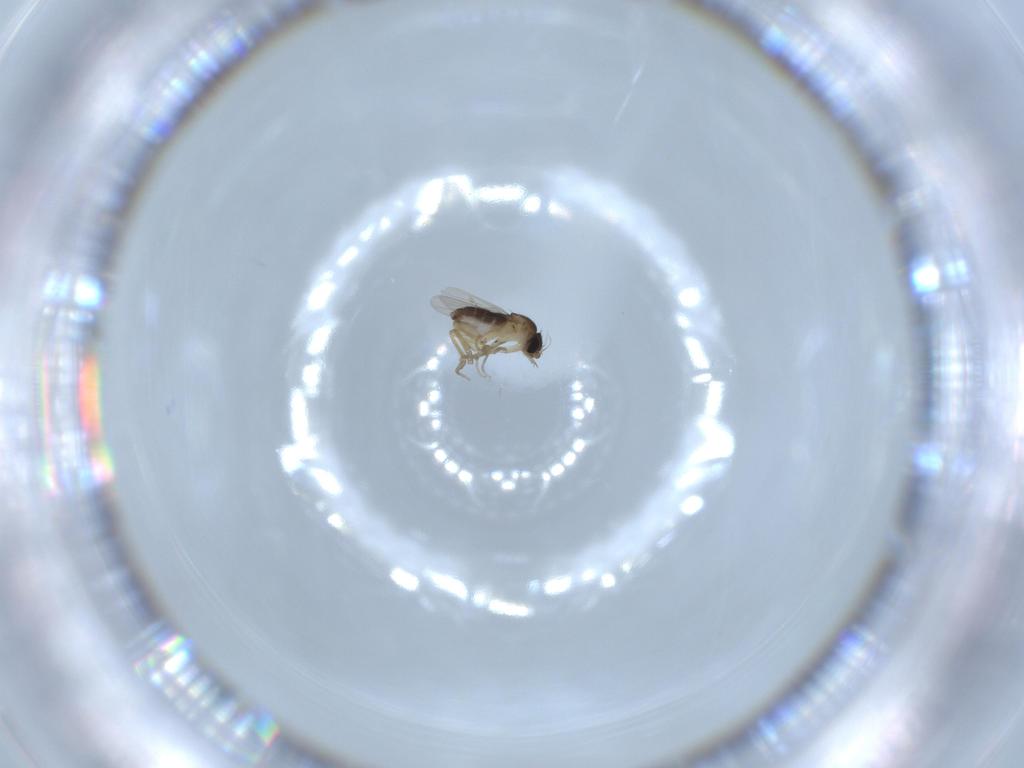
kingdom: Animalia
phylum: Arthropoda
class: Insecta
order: Diptera
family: Phoridae
